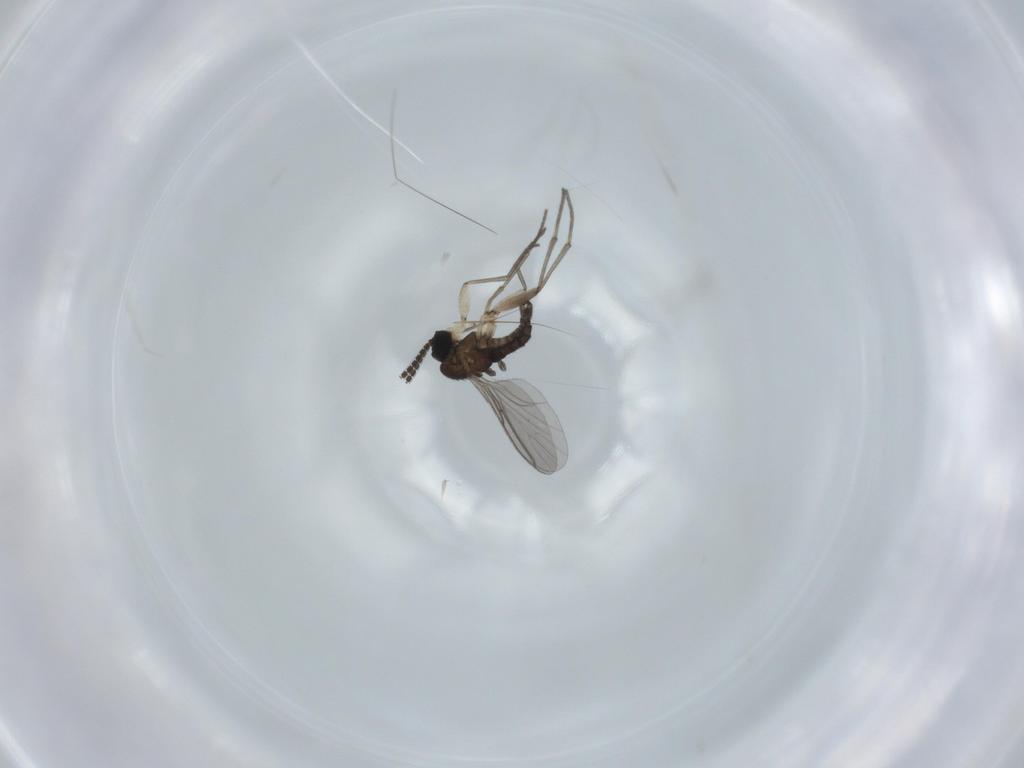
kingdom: Animalia
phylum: Arthropoda
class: Insecta
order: Diptera
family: Sciaridae
